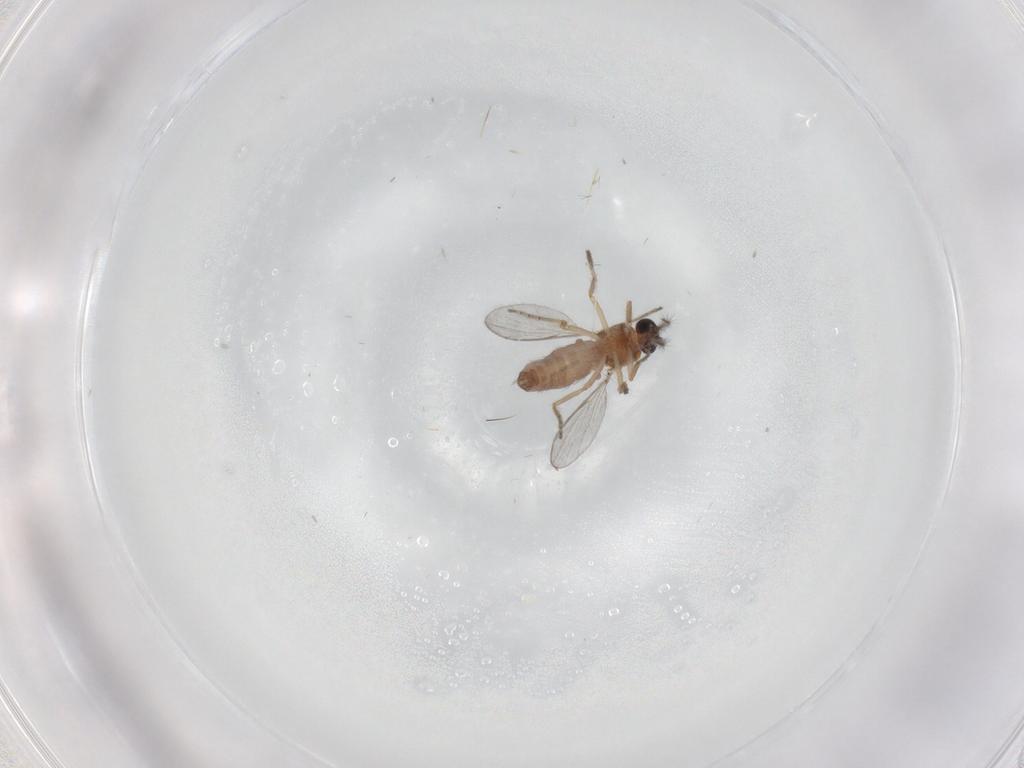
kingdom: Animalia
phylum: Arthropoda
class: Insecta
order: Diptera
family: Ceratopogonidae
